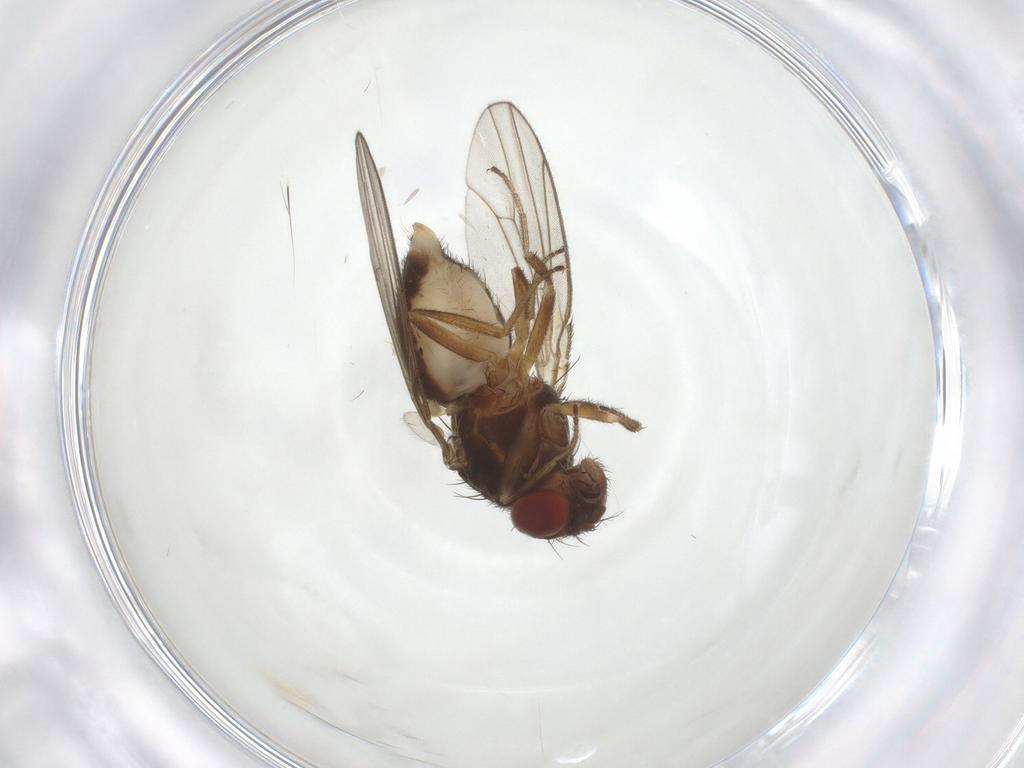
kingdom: Animalia
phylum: Arthropoda
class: Insecta
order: Diptera
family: Drosophilidae
